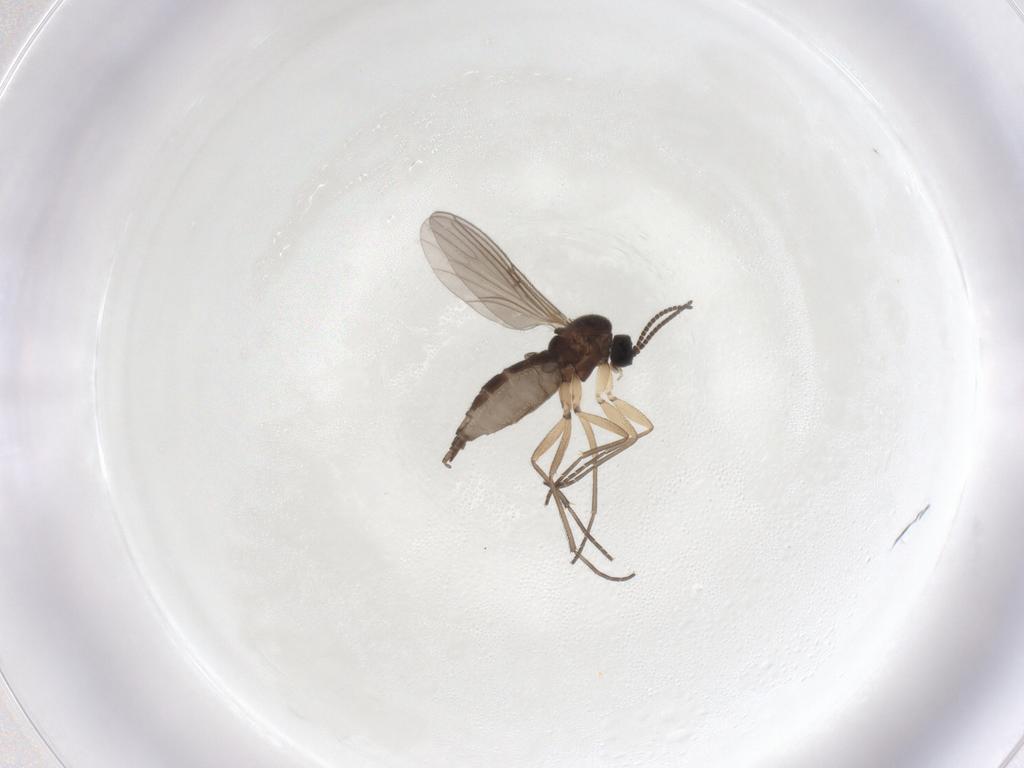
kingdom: Animalia
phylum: Arthropoda
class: Insecta
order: Diptera
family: Sciaridae
